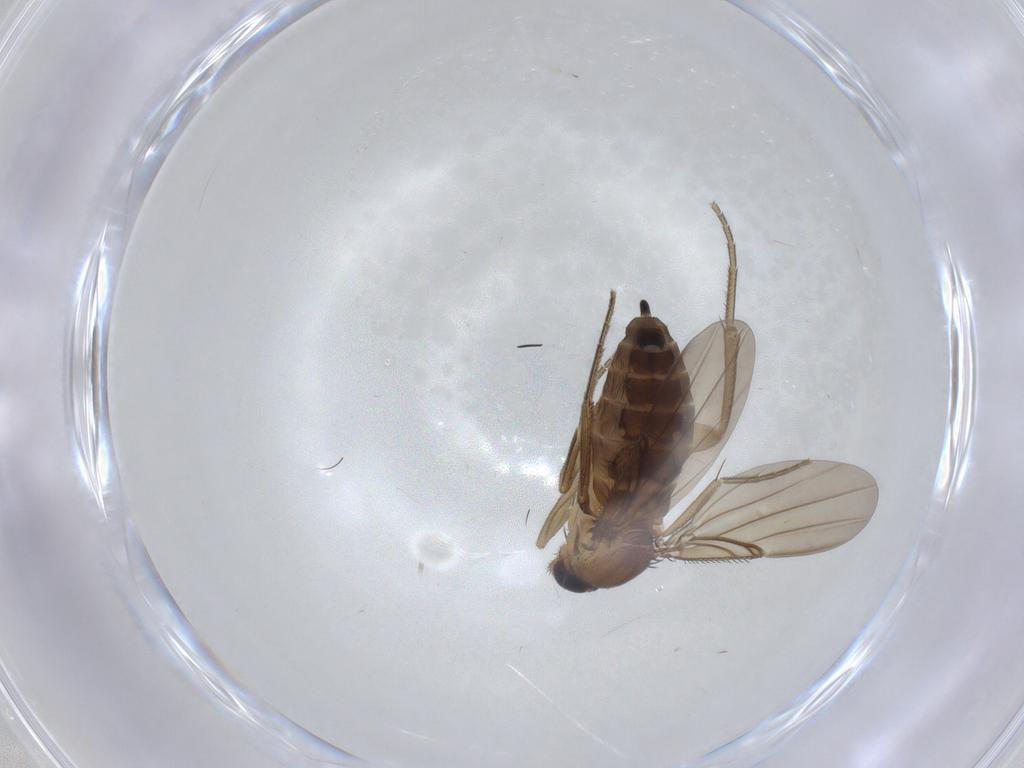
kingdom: Animalia
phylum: Arthropoda
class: Insecta
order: Diptera
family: Phoridae
